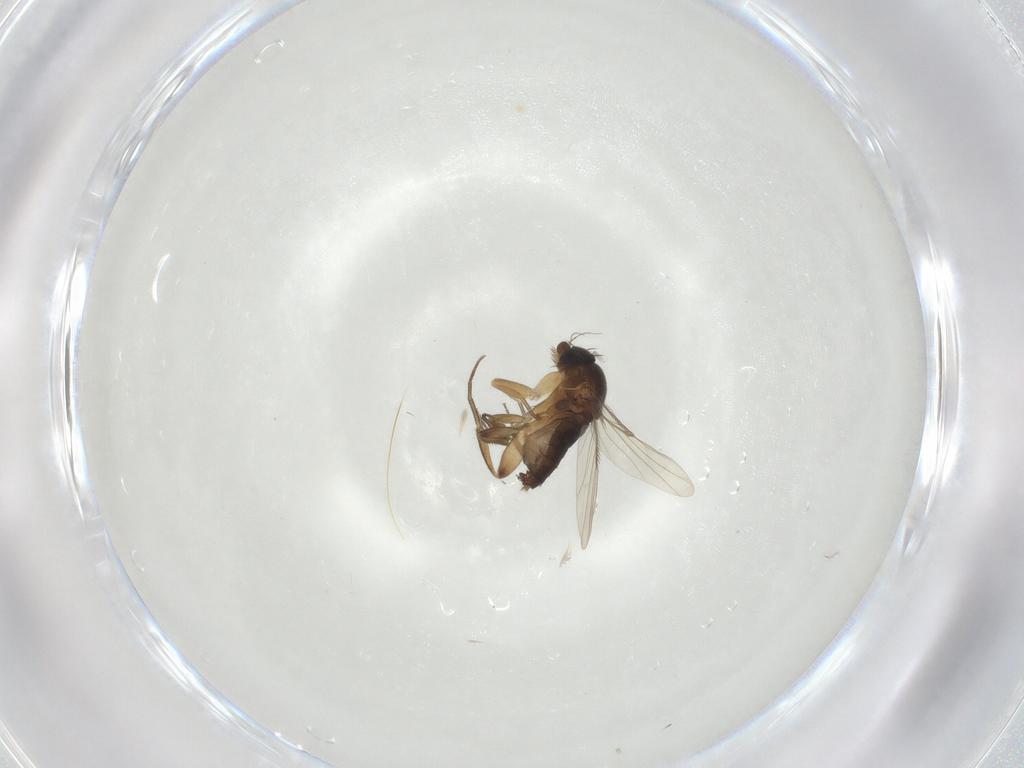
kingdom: Animalia
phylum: Arthropoda
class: Insecta
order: Diptera
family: Phoridae
